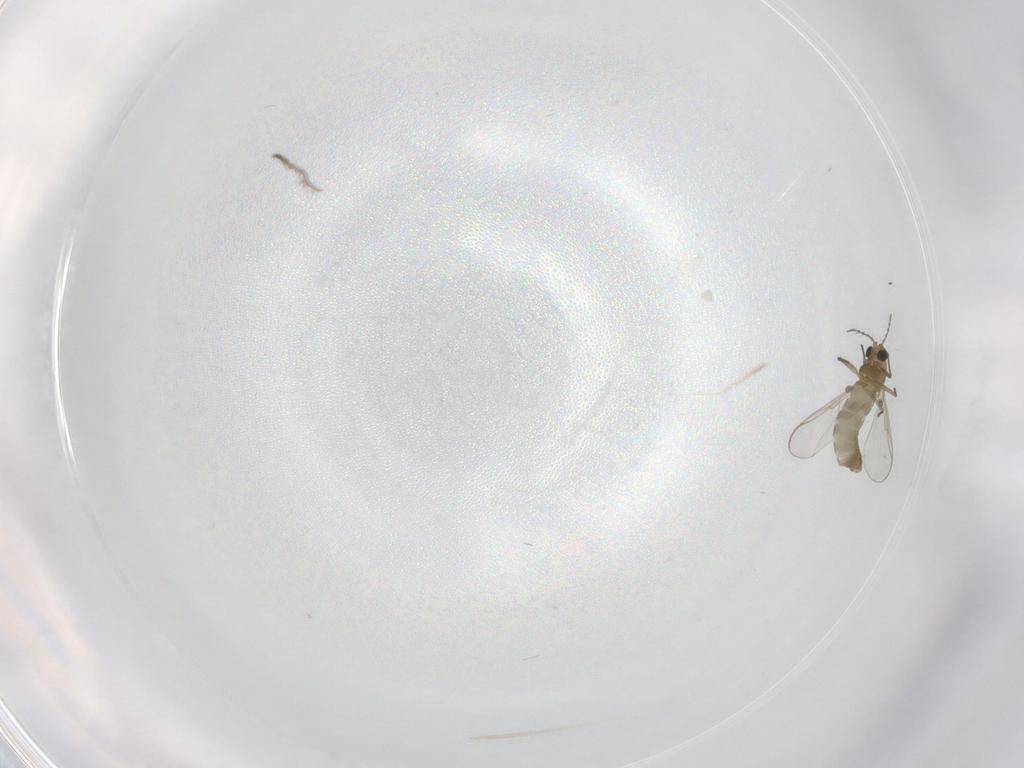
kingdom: Animalia
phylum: Arthropoda
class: Insecta
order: Diptera
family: Chironomidae
